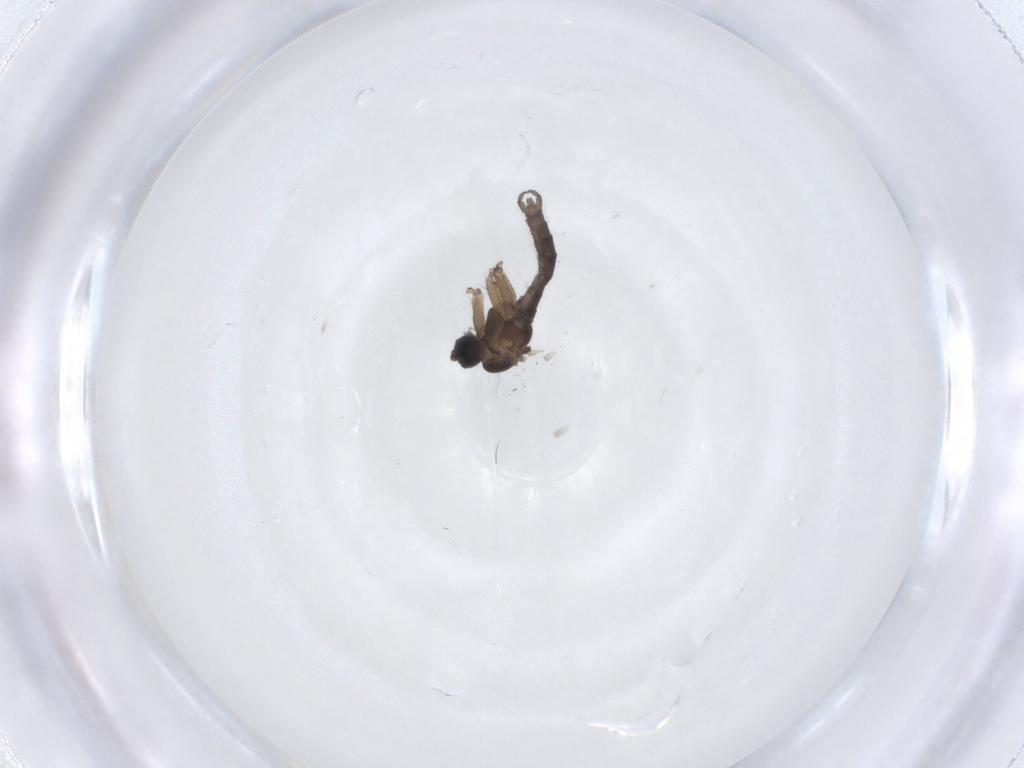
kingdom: Animalia
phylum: Arthropoda
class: Insecta
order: Diptera
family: Sciaridae
